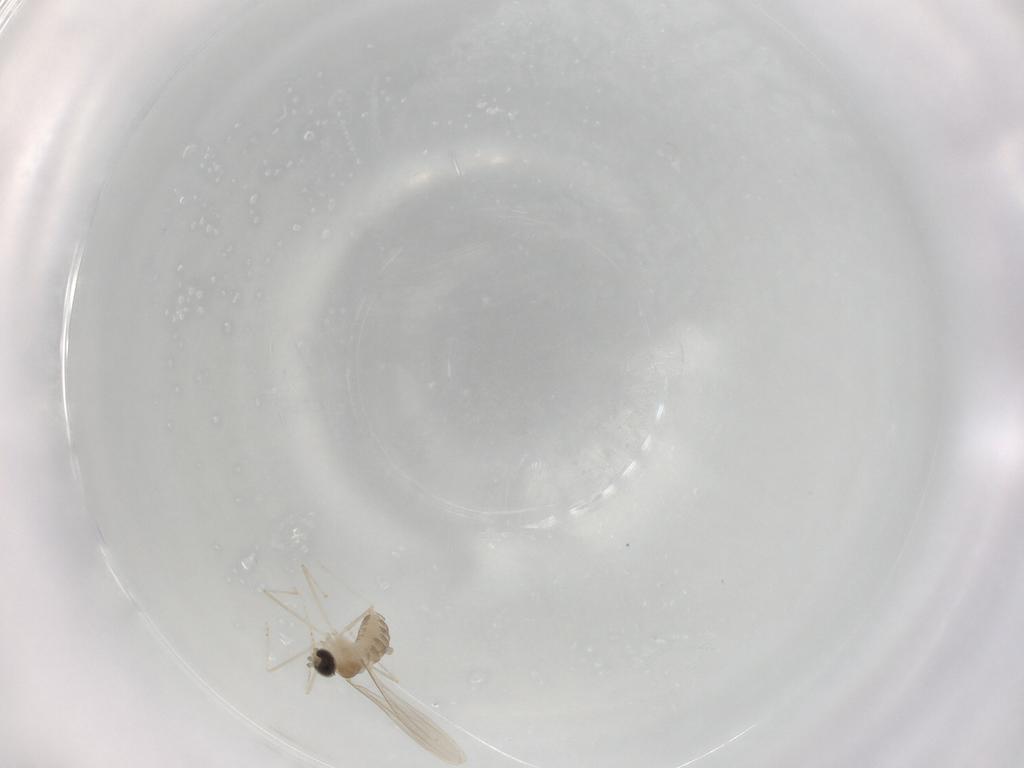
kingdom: Animalia
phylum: Arthropoda
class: Insecta
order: Diptera
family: Cecidomyiidae
